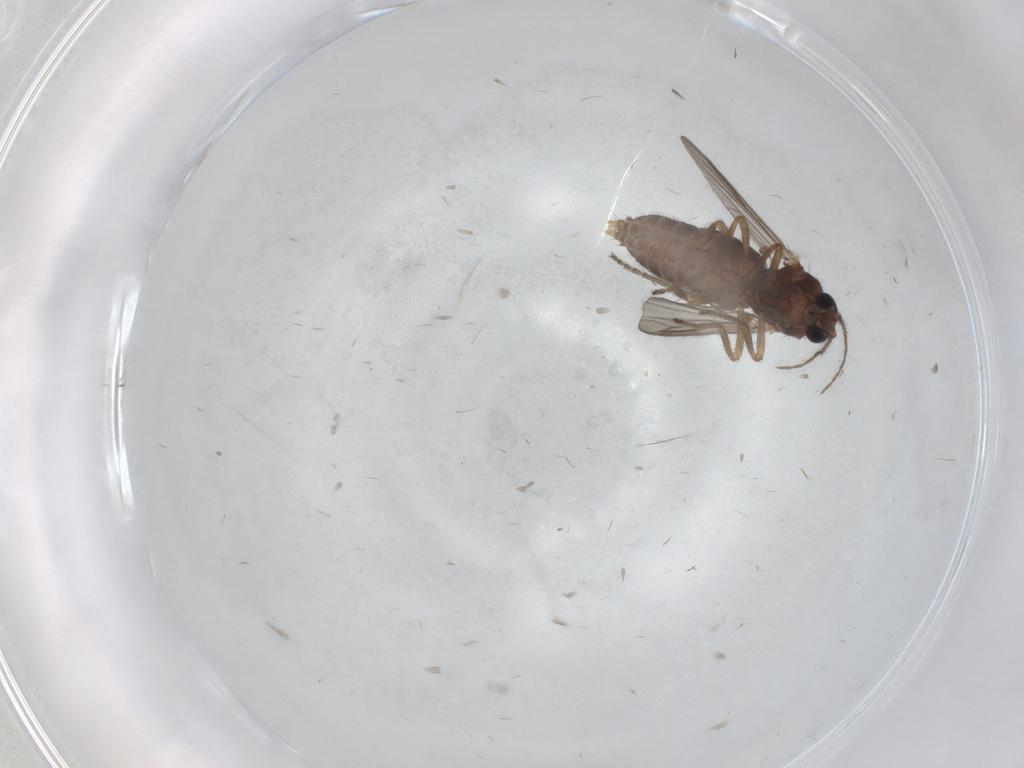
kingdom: Animalia
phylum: Arthropoda
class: Insecta
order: Diptera
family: Ceratopogonidae
